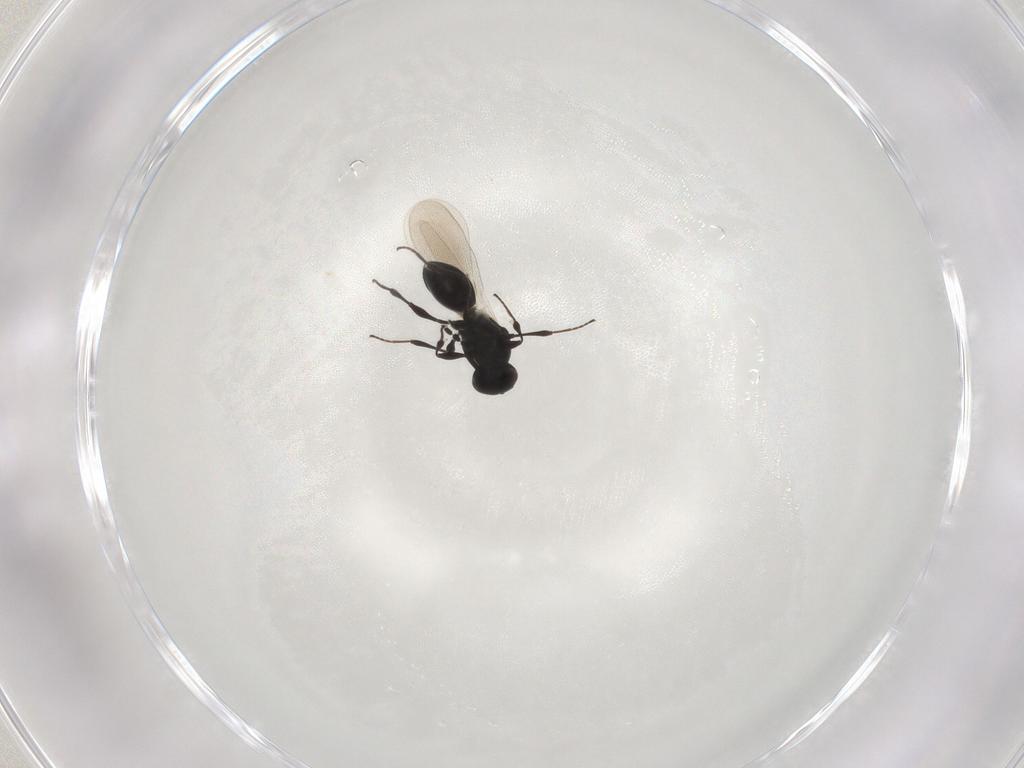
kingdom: Animalia
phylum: Arthropoda
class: Insecta
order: Hymenoptera
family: Platygastridae
